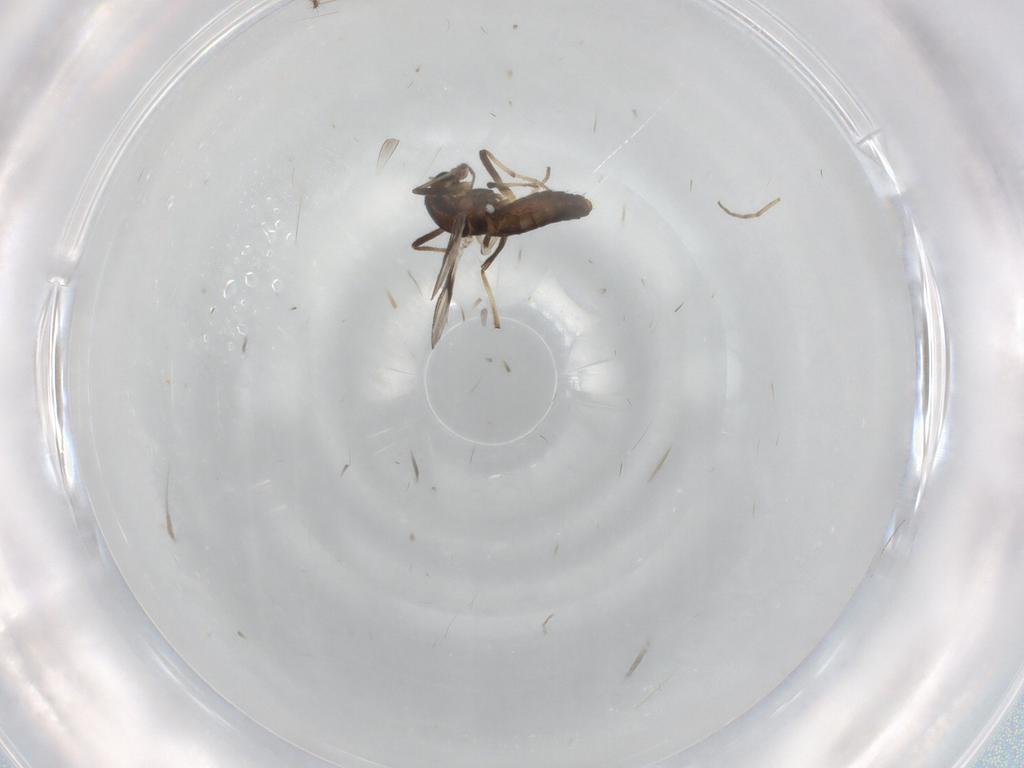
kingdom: Animalia
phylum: Arthropoda
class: Insecta
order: Diptera
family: Chironomidae
